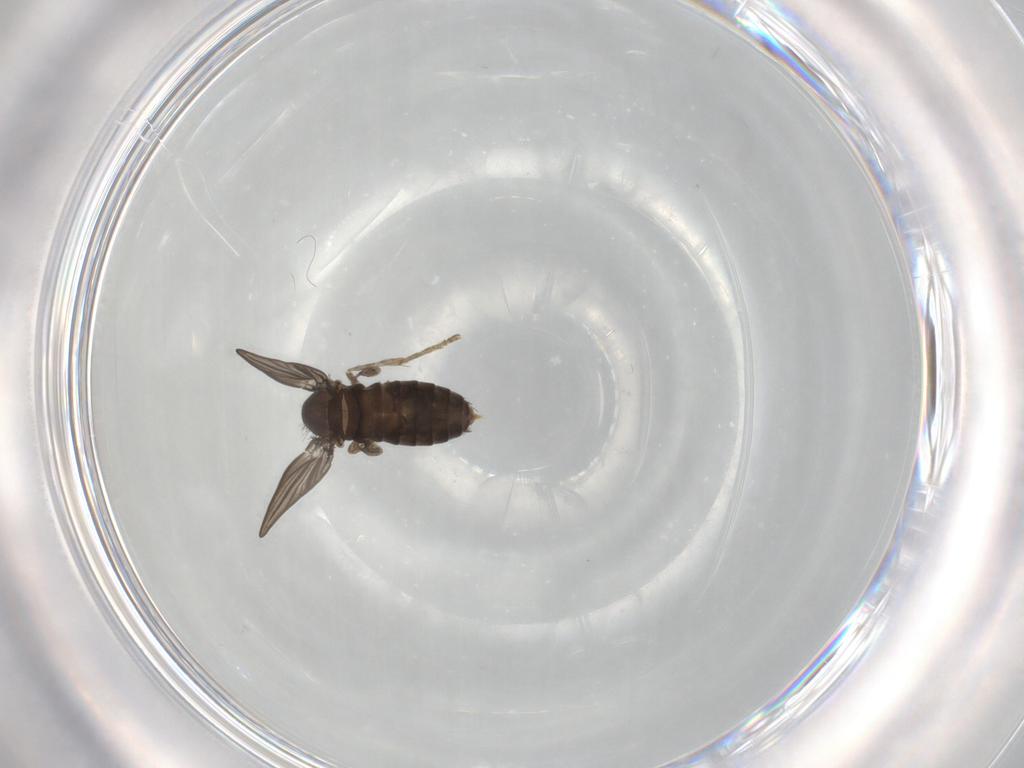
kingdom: Animalia
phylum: Arthropoda
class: Insecta
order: Diptera
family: Psychodidae
